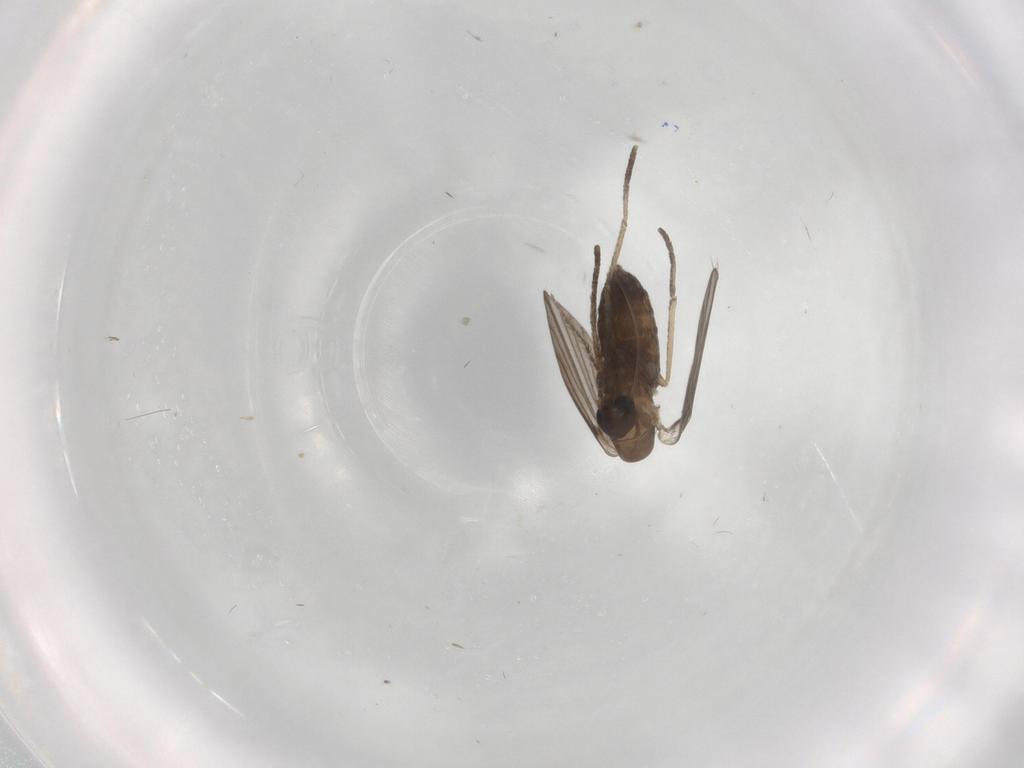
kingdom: Animalia
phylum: Arthropoda
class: Insecta
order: Diptera
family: Psychodidae
